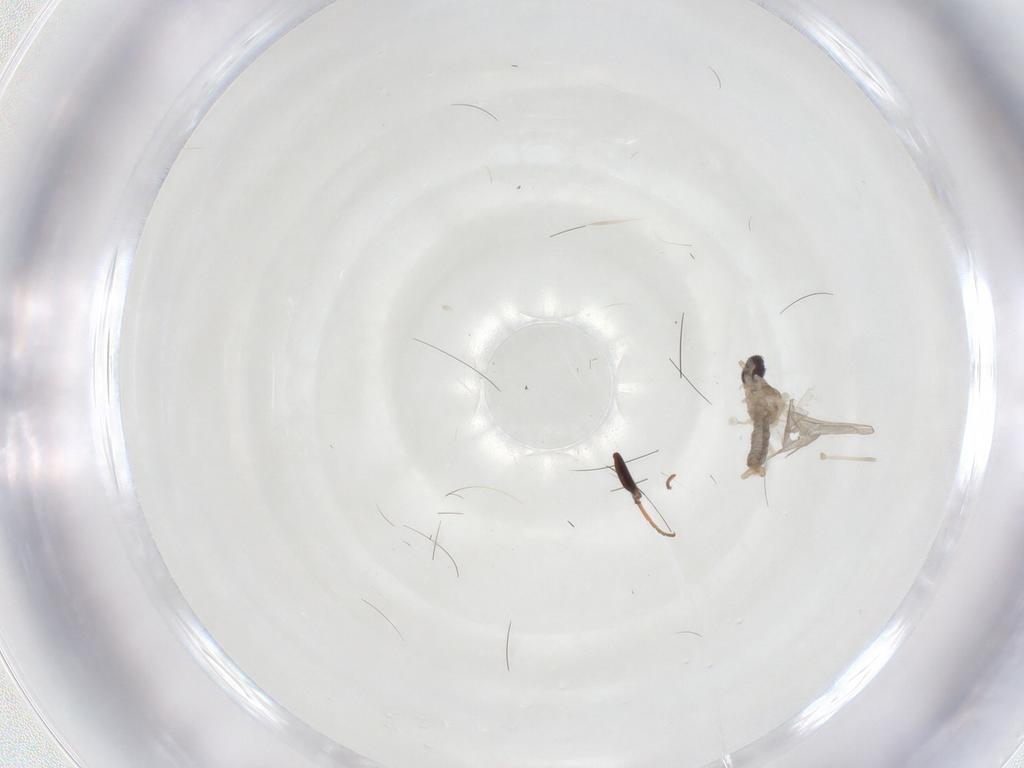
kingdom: Animalia
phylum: Arthropoda
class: Insecta
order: Diptera
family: Cecidomyiidae
